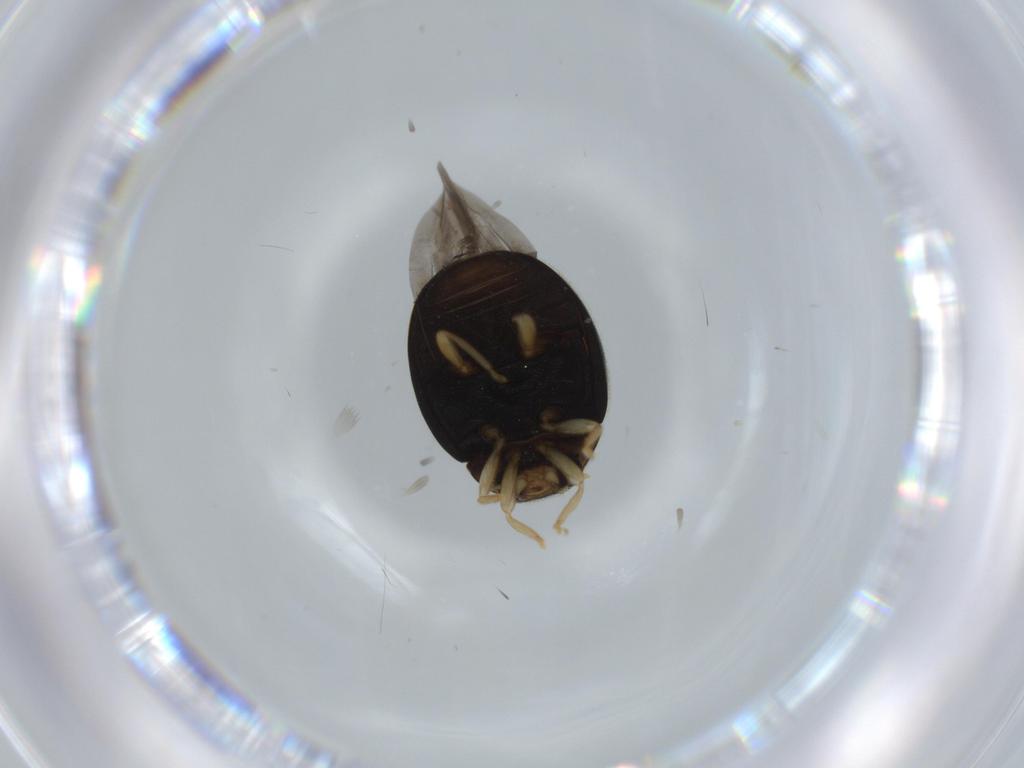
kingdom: Animalia
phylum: Arthropoda
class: Insecta
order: Coleoptera
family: Coccinellidae
